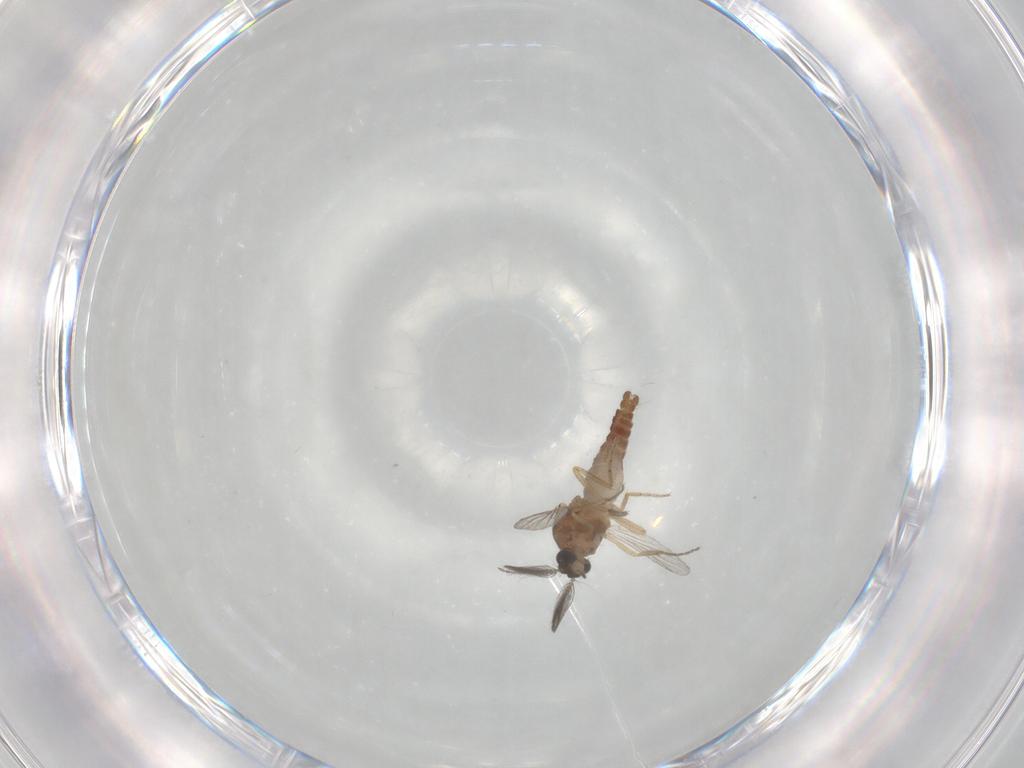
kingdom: Animalia
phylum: Arthropoda
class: Insecta
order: Diptera
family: Ceratopogonidae
